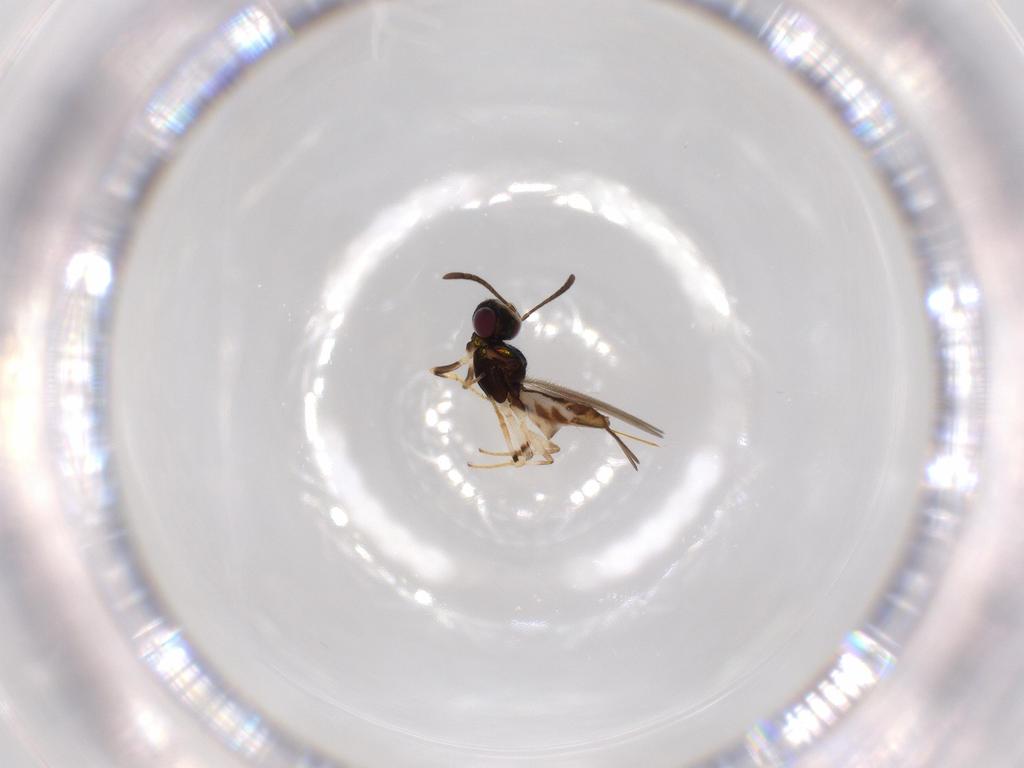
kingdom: Animalia
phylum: Arthropoda
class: Insecta
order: Hymenoptera
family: Eupelmidae
